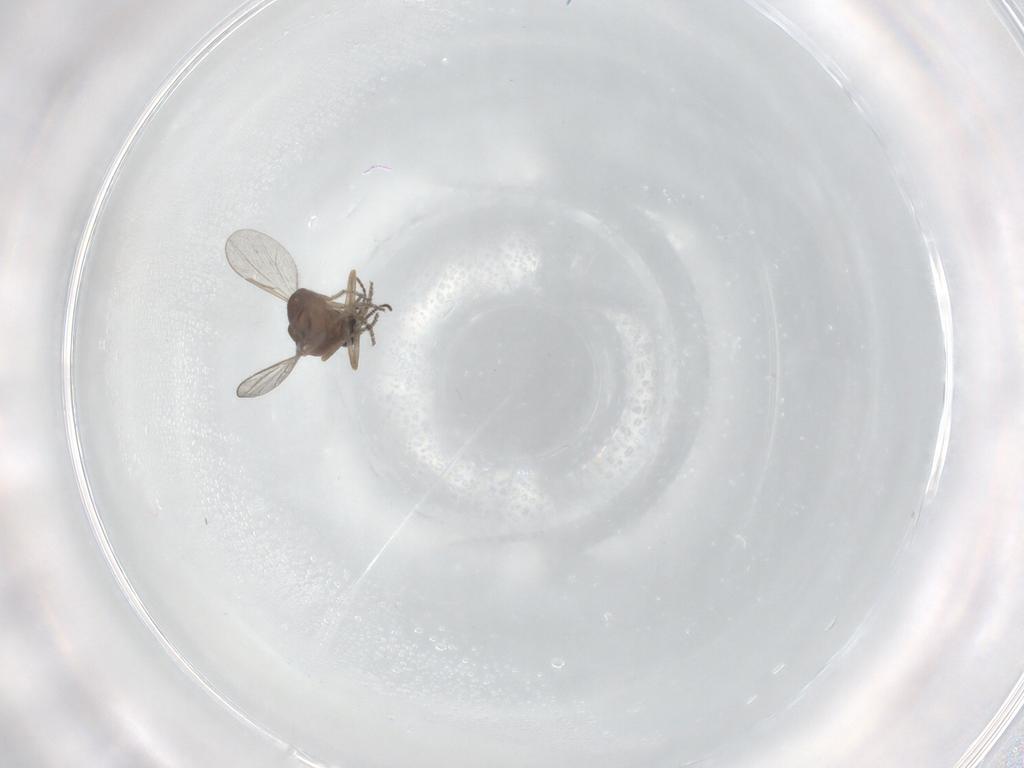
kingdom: Animalia
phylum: Arthropoda
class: Insecta
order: Diptera
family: Ceratopogonidae
